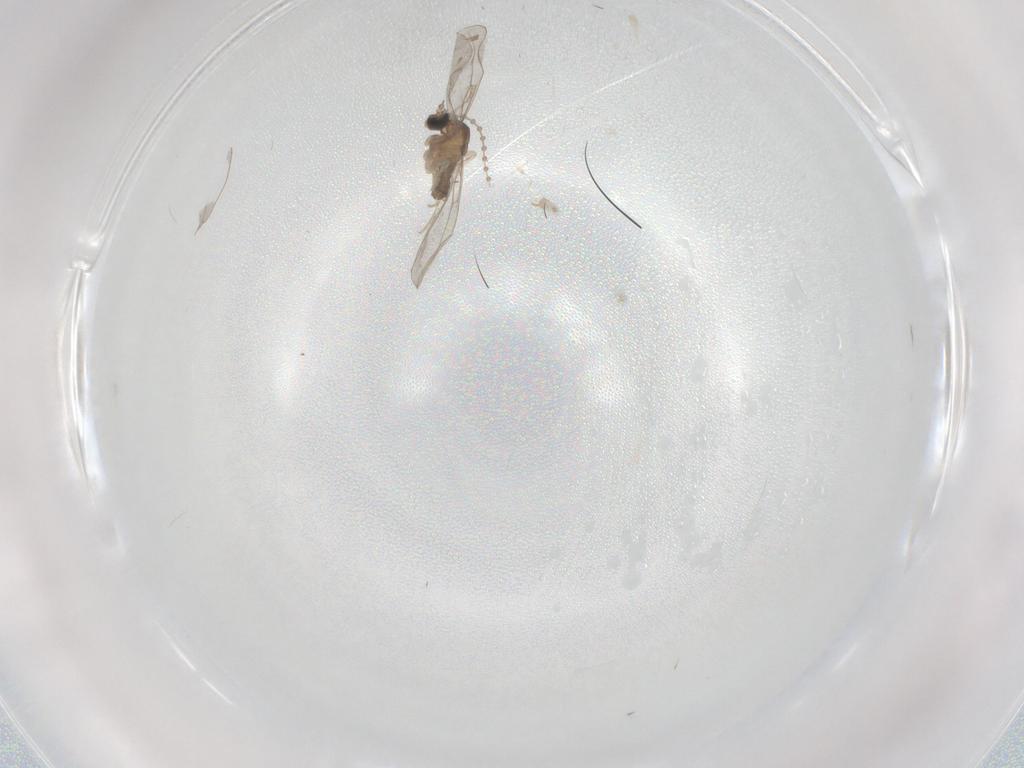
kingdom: Animalia
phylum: Arthropoda
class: Insecta
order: Diptera
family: Cecidomyiidae
